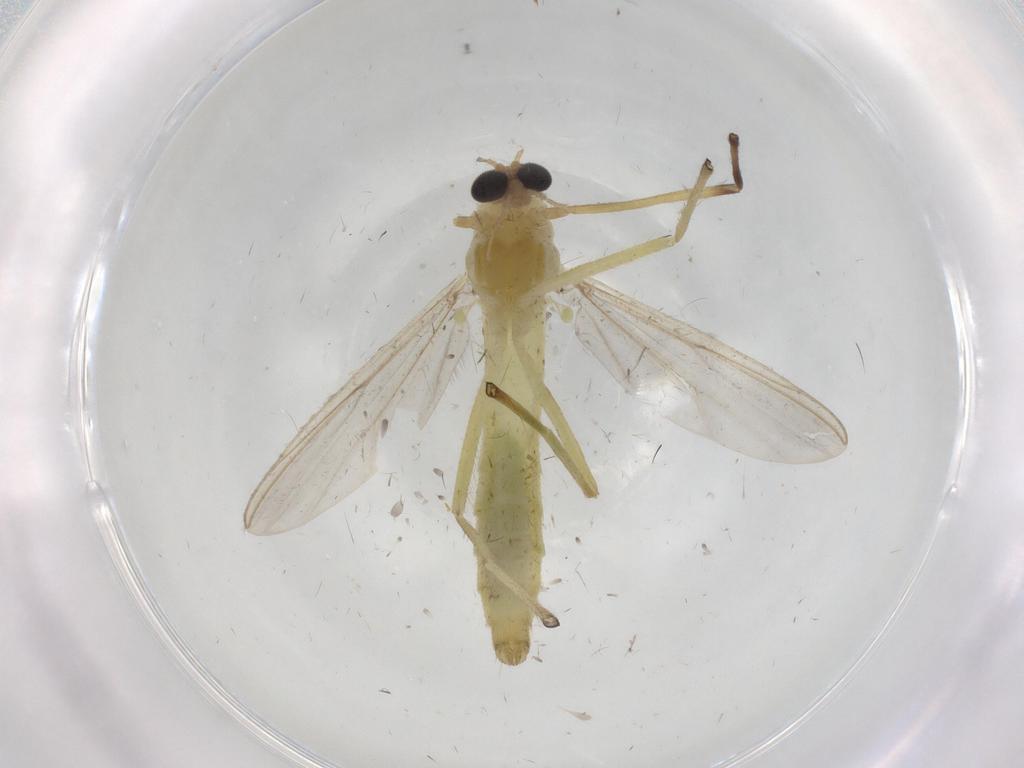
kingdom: Animalia
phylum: Arthropoda
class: Insecta
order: Diptera
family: Chironomidae
